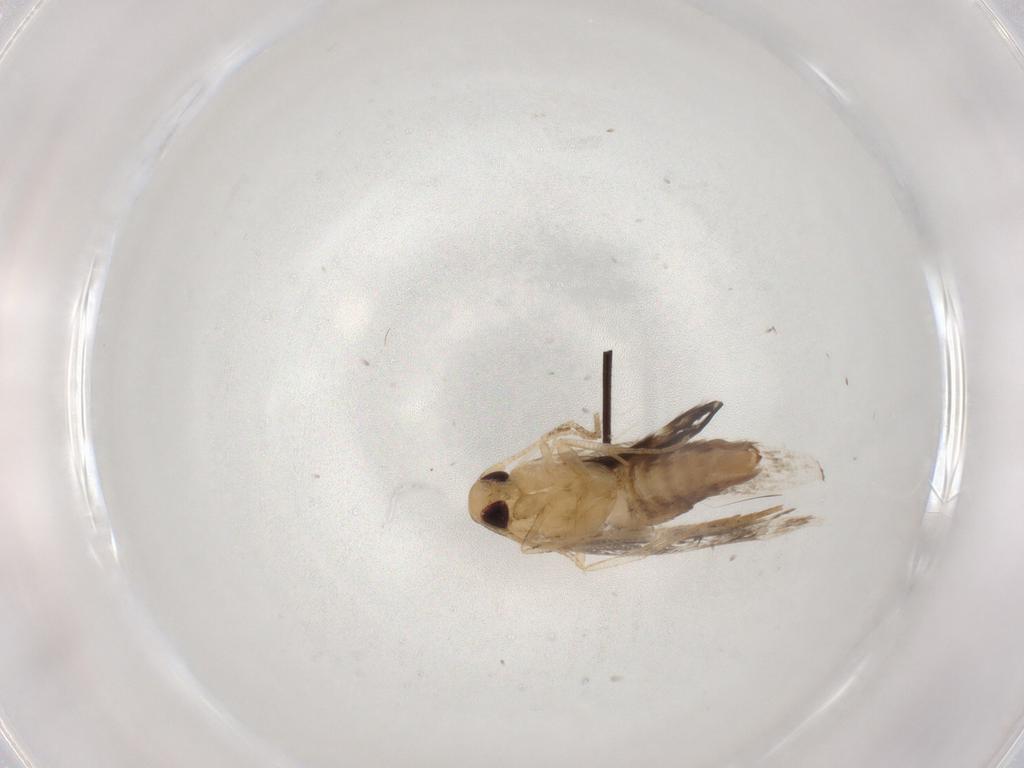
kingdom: Animalia
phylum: Arthropoda
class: Insecta
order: Lepidoptera
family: Cosmopterigidae
